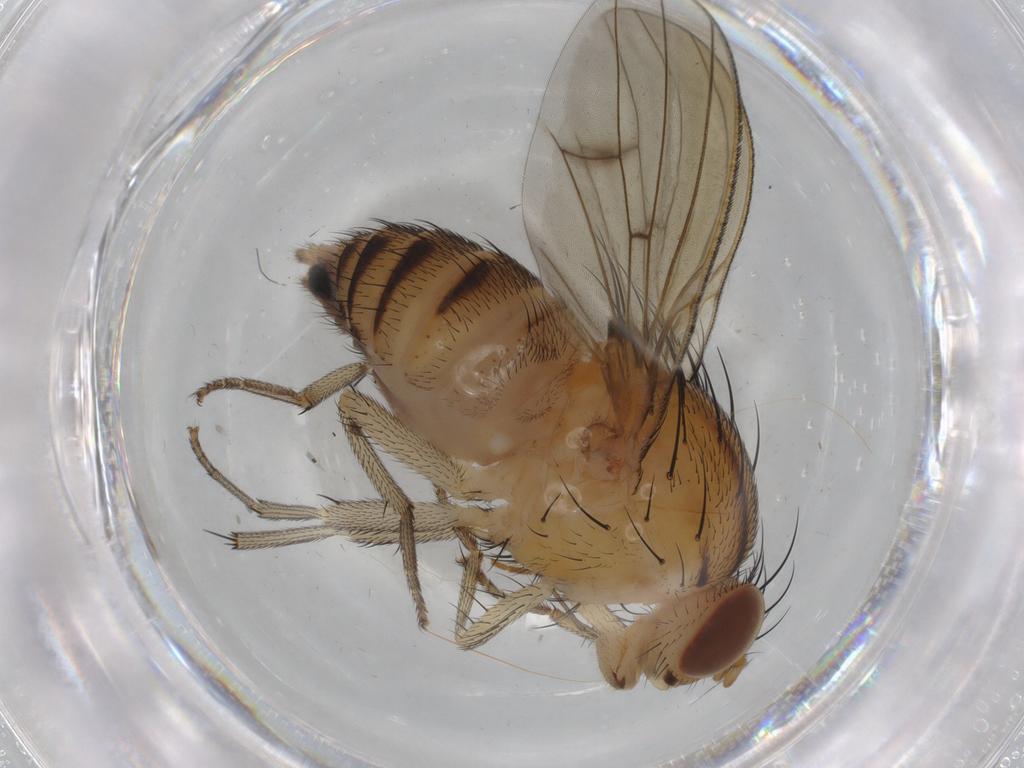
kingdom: Animalia
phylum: Arthropoda
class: Insecta
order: Diptera
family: Lauxaniidae
